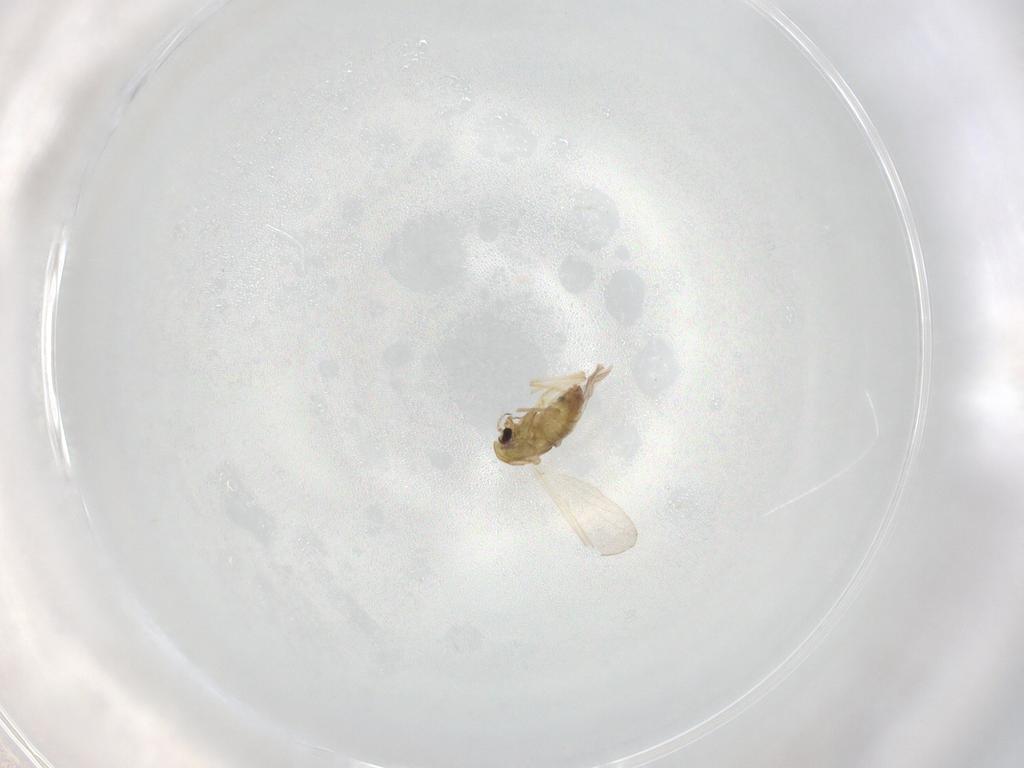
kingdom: Animalia
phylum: Arthropoda
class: Insecta
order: Diptera
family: Chironomidae
